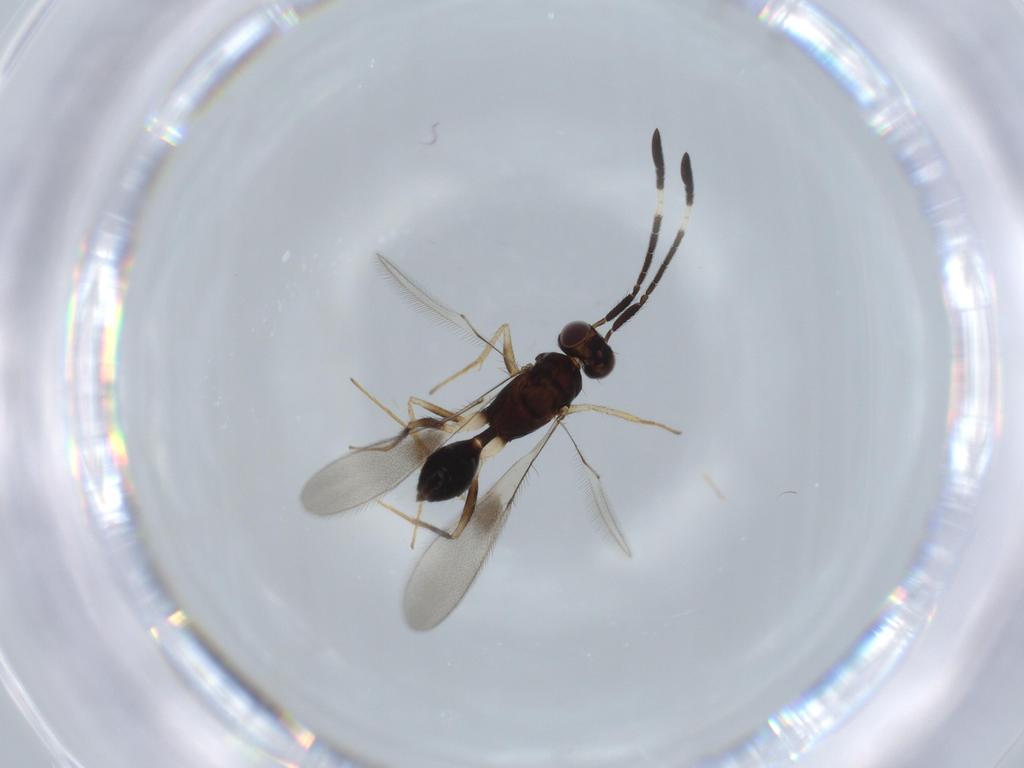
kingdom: Animalia
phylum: Arthropoda
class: Insecta
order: Hymenoptera
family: Mymaridae
